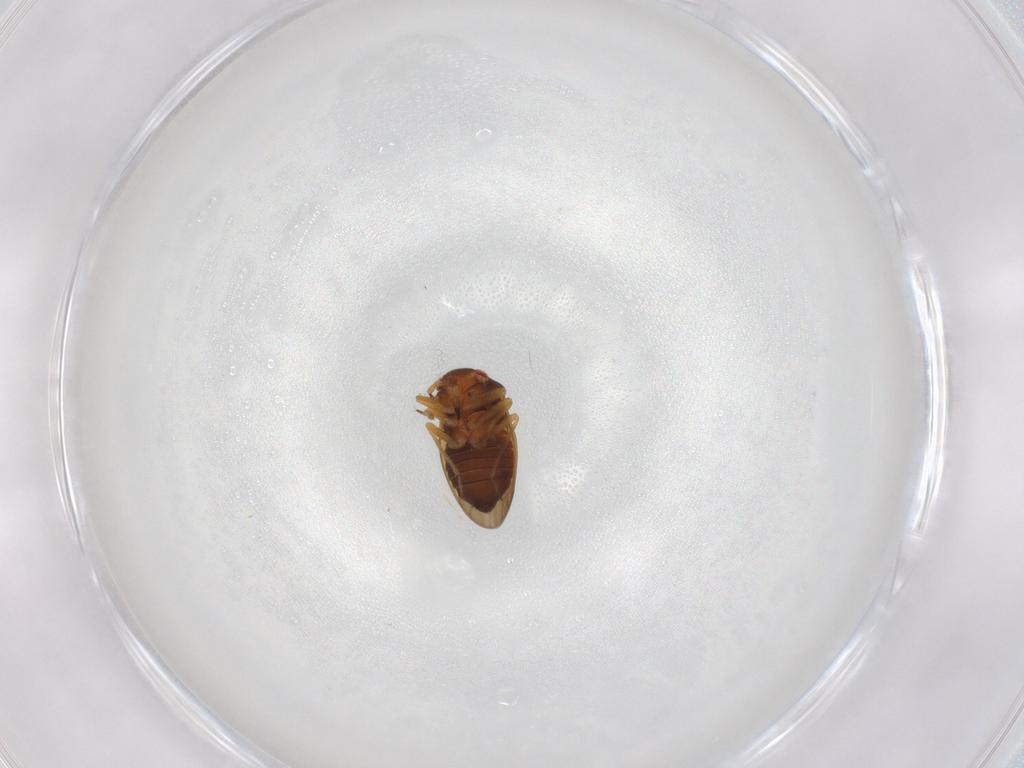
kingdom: Animalia
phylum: Arthropoda
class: Insecta
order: Hemiptera
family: Schizopteridae
